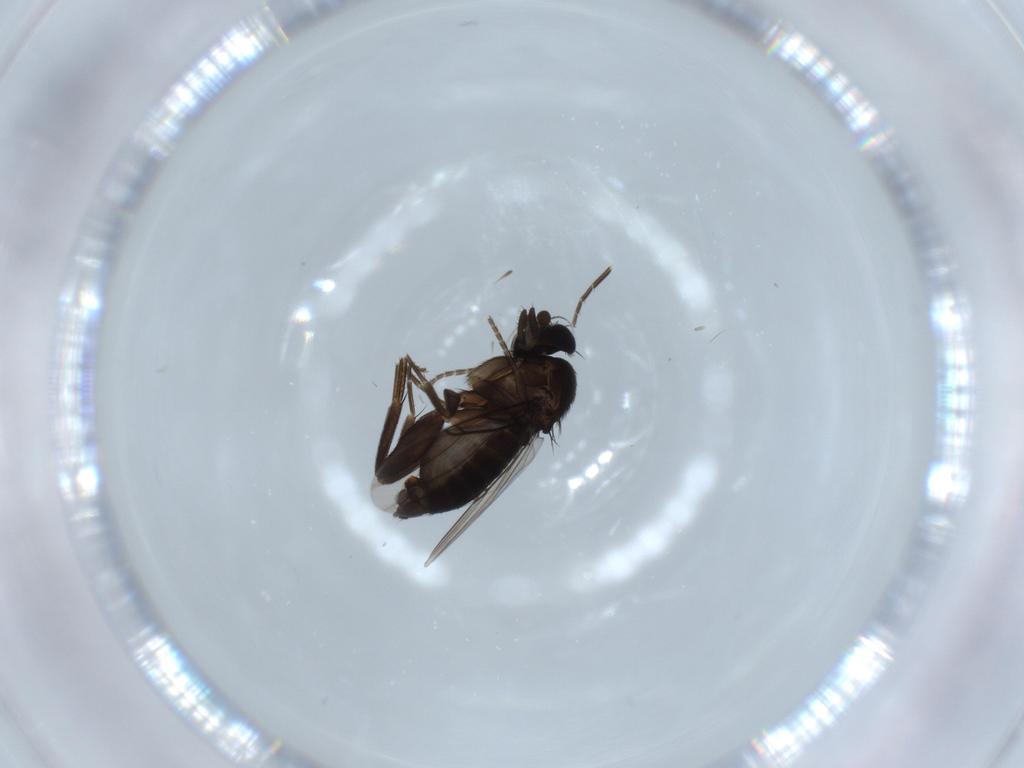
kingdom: Animalia
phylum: Arthropoda
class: Insecta
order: Diptera
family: Phoridae
